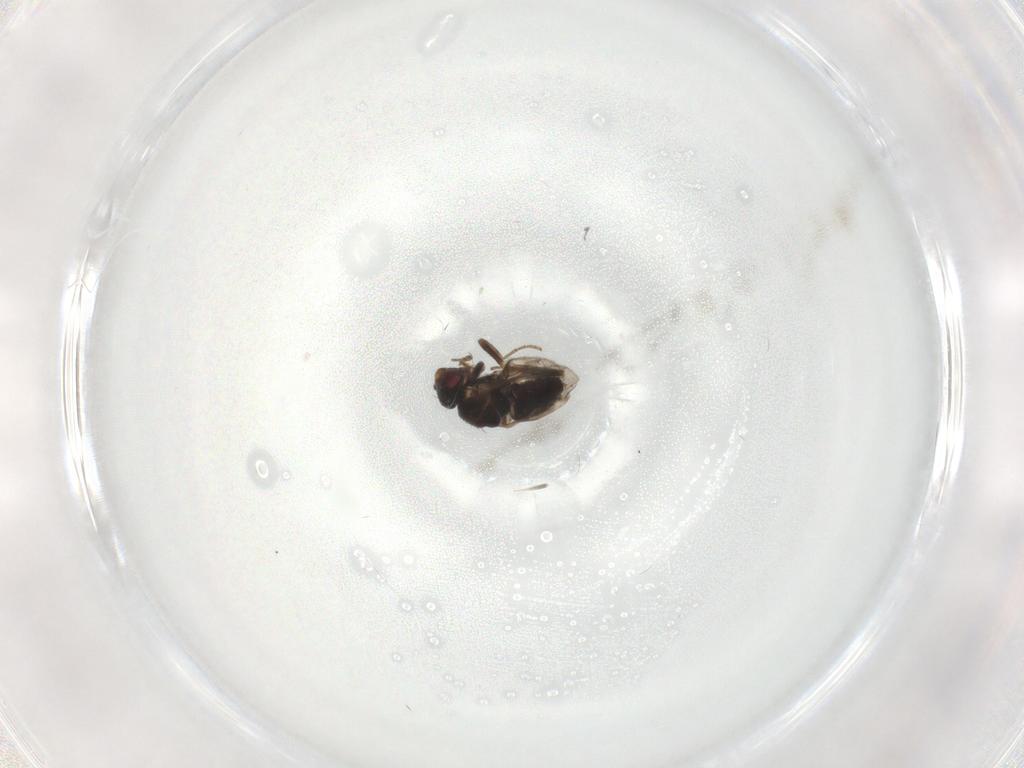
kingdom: Animalia
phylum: Arthropoda
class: Insecta
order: Diptera
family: Sphaeroceridae
